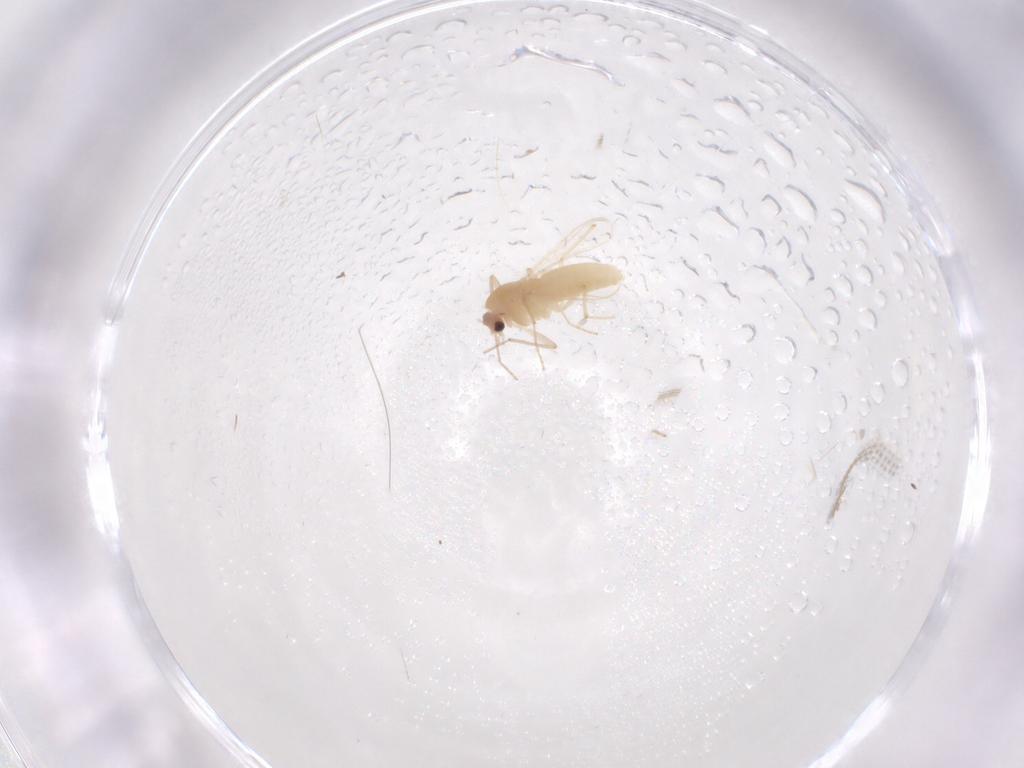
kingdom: Animalia
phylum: Arthropoda
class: Insecta
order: Diptera
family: Chironomidae
